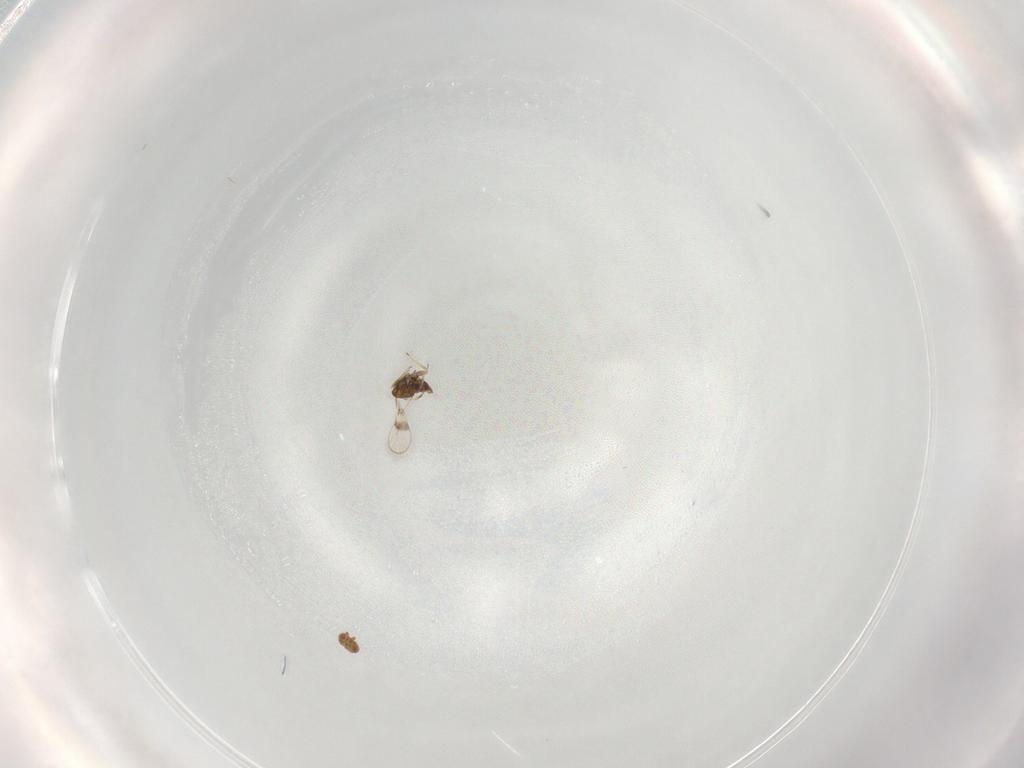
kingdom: Animalia
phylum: Arthropoda
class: Insecta
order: Hymenoptera
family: Trichogrammatidae
